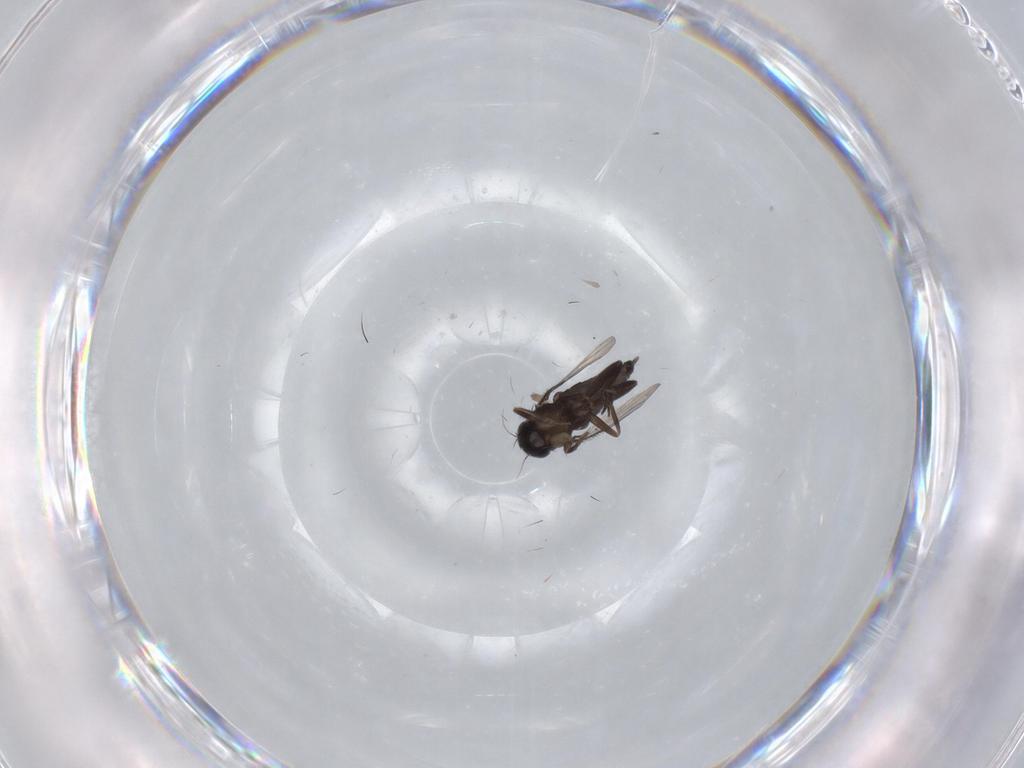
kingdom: Animalia
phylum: Arthropoda
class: Insecta
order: Diptera
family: Phoridae
